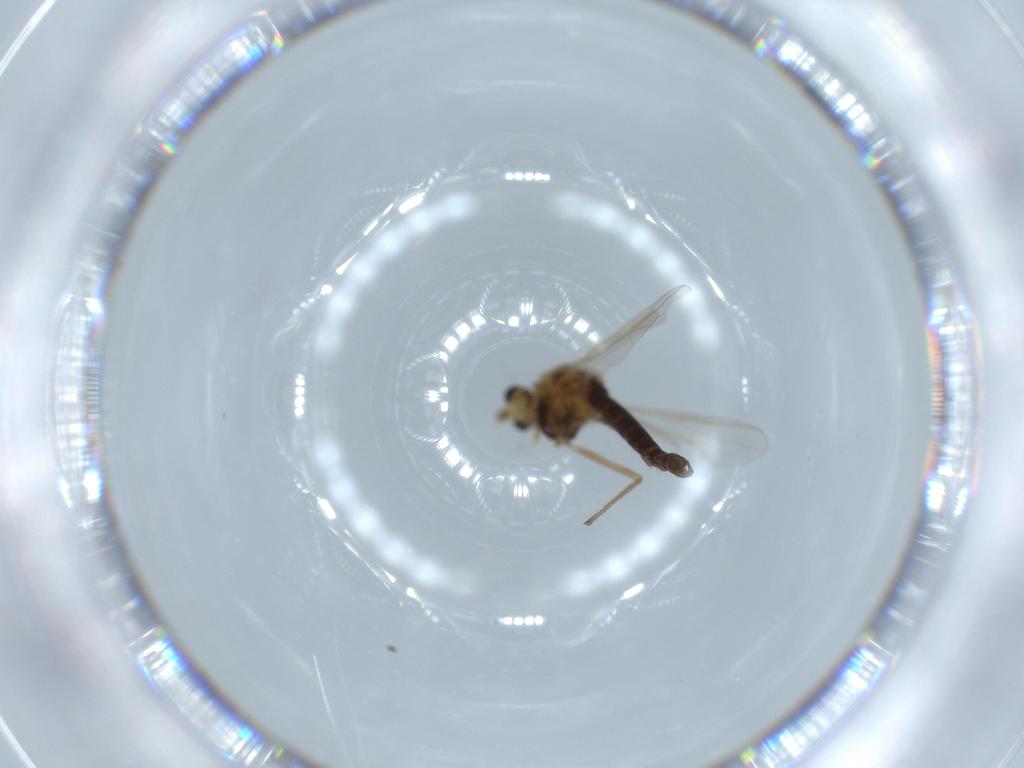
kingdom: Animalia
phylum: Arthropoda
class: Insecta
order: Diptera
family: Chironomidae
